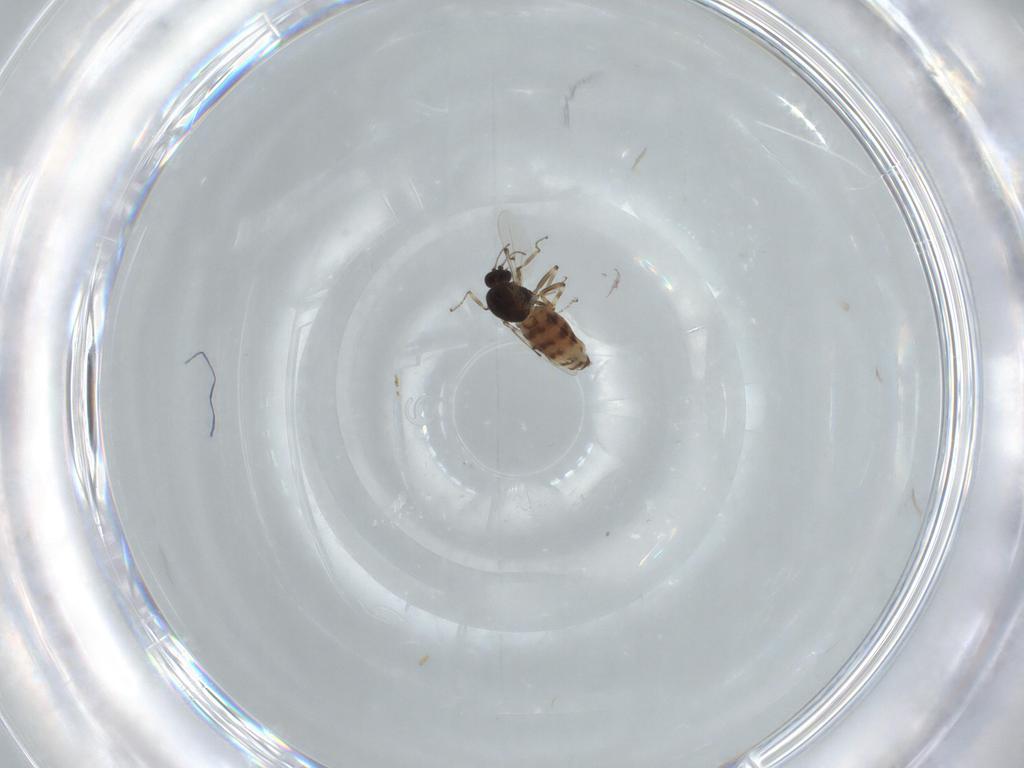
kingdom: Animalia
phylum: Arthropoda
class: Insecta
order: Diptera
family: Ceratopogonidae
